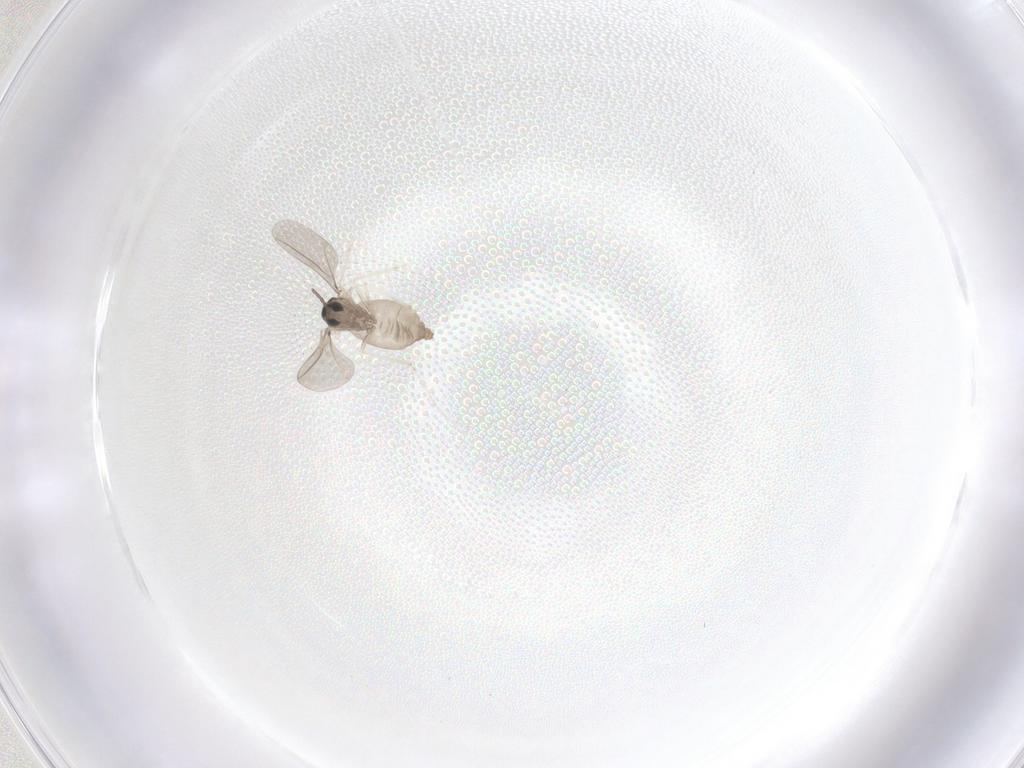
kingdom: Animalia
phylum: Arthropoda
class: Insecta
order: Diptera
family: Cecidomyiidae
